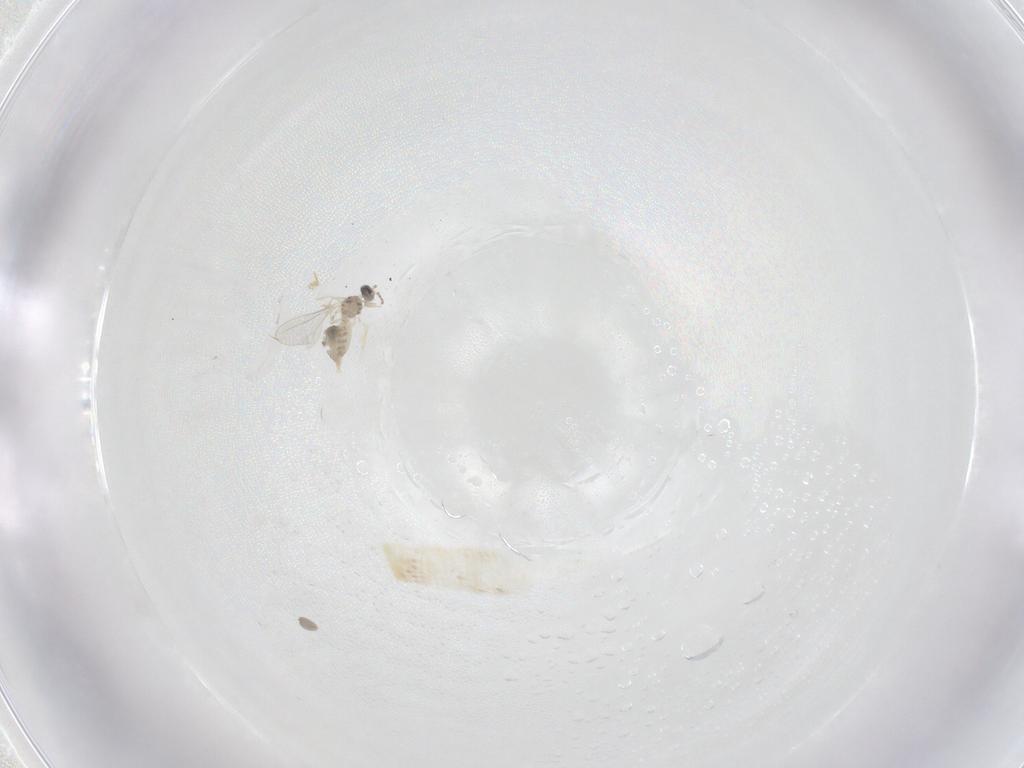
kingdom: Animalia
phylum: Arthropoda
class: Insecta
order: Diptera
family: Cecidomyiidae
